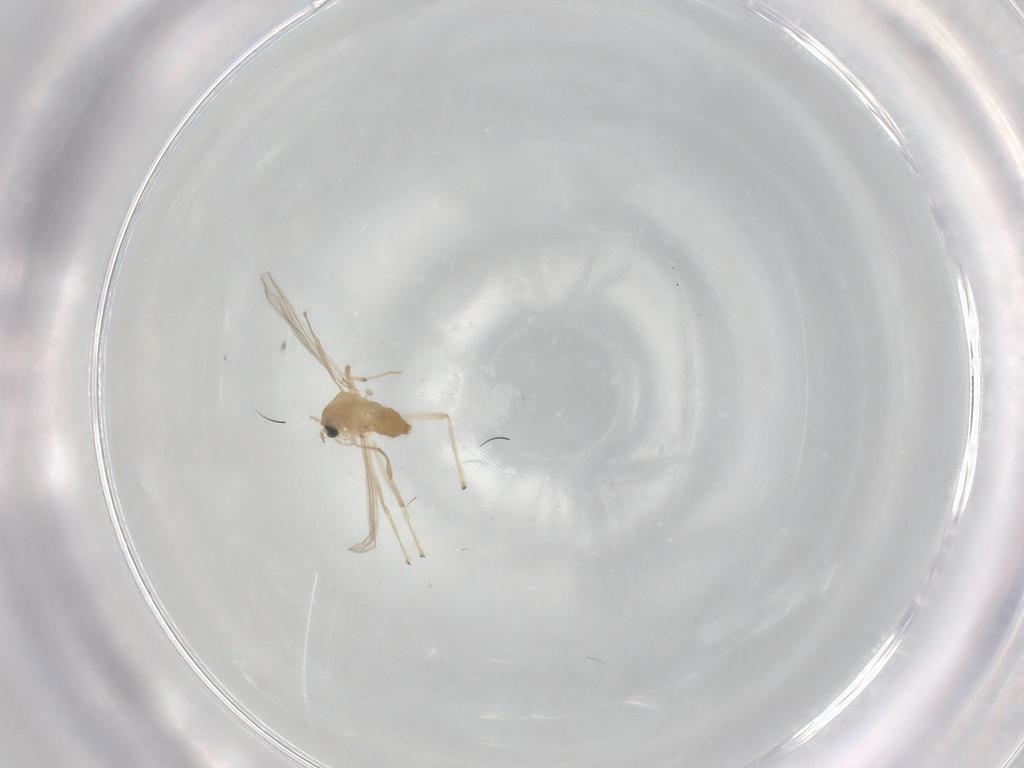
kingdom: Animalia
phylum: Arthropoda
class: Insecta
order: Diptera
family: Chironomidae
